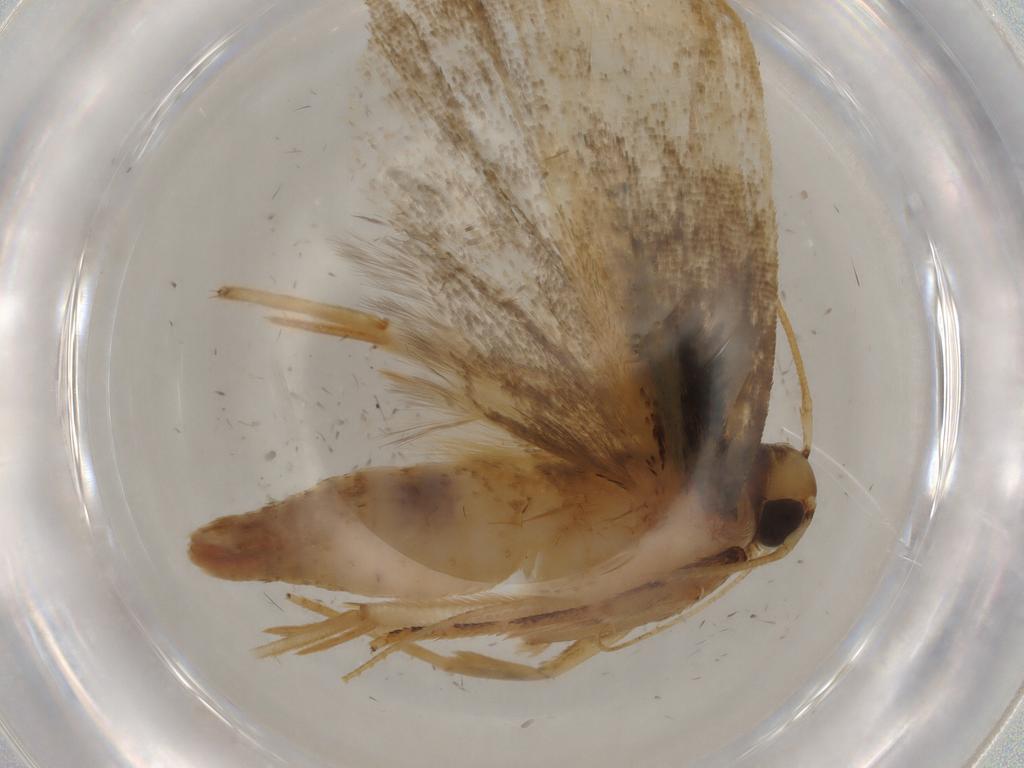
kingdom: Animalia
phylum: Arthropoda
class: Insecta
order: Lepidoptera
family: Gelechiidae
